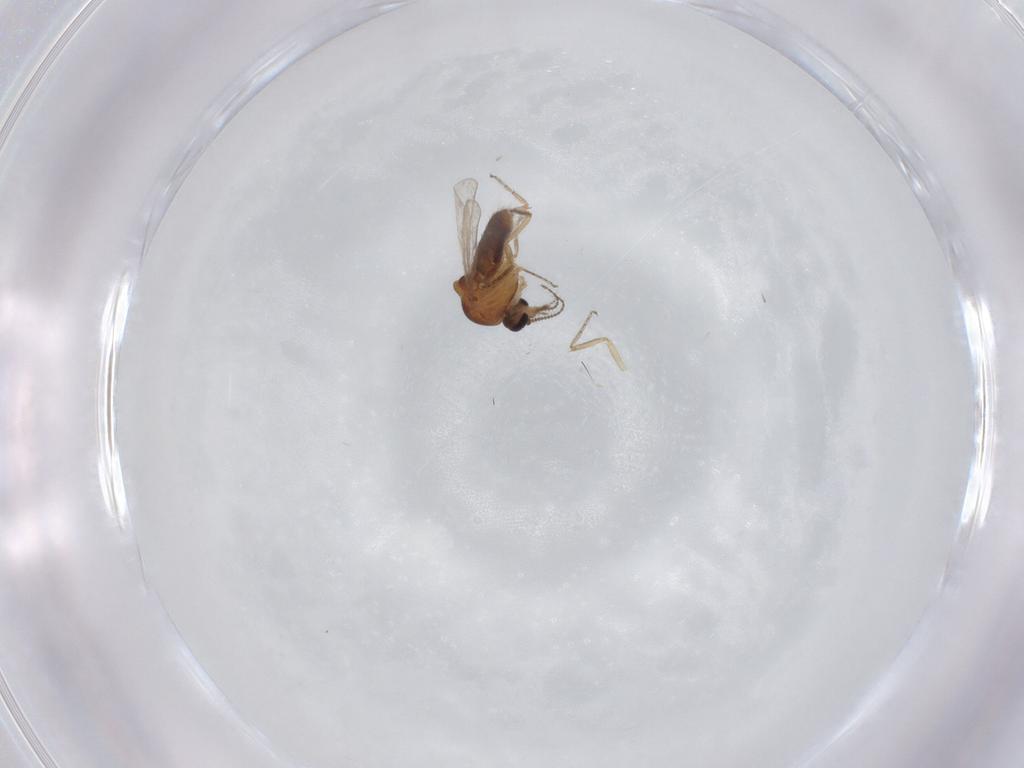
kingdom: Animalia
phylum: Arthropoda
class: Insecta
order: Diptera
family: Ceratopogonidae
